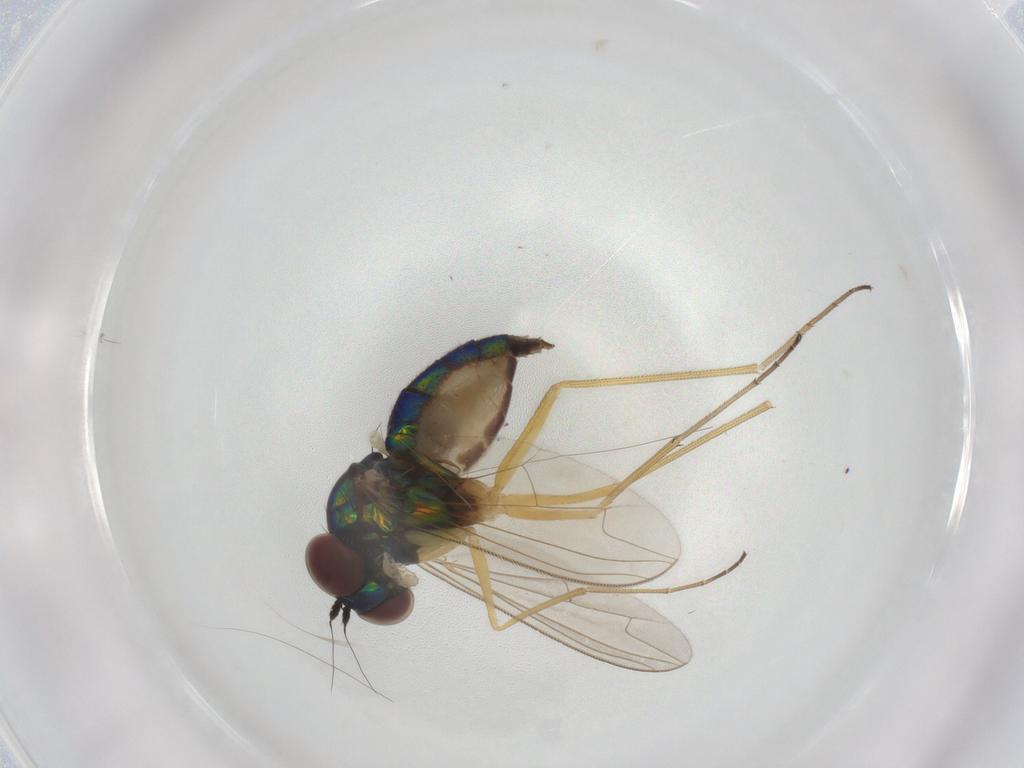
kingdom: Animalia
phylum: Arthropoda
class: Insecta
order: Diptera
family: Dolichopodidae
